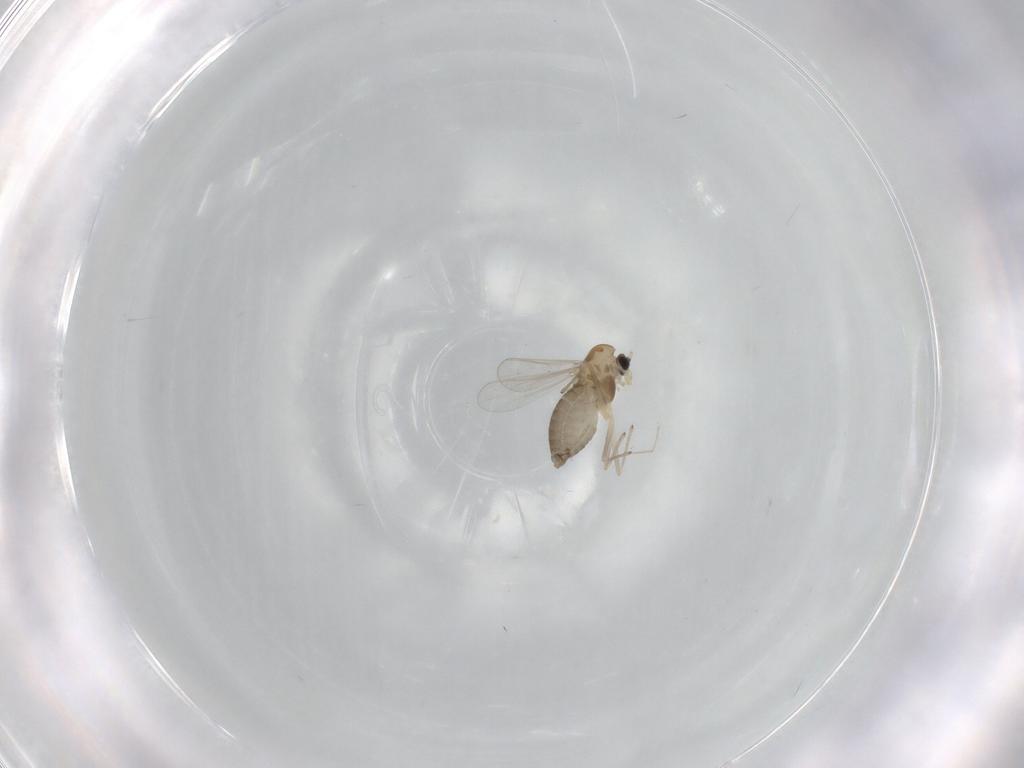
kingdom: Animalia
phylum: Arthropoda
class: Insecta
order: Diptera
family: Chironomidae
